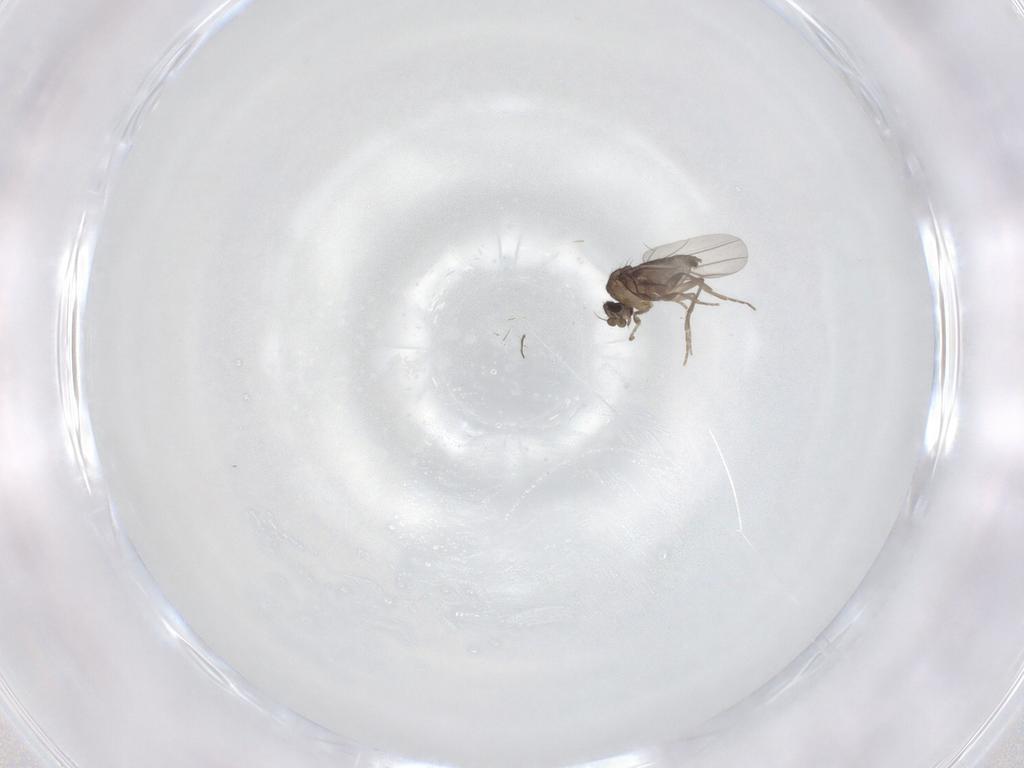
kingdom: Animalia
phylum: Arthropoda
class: Insecta
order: Diptera
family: Phoridae
